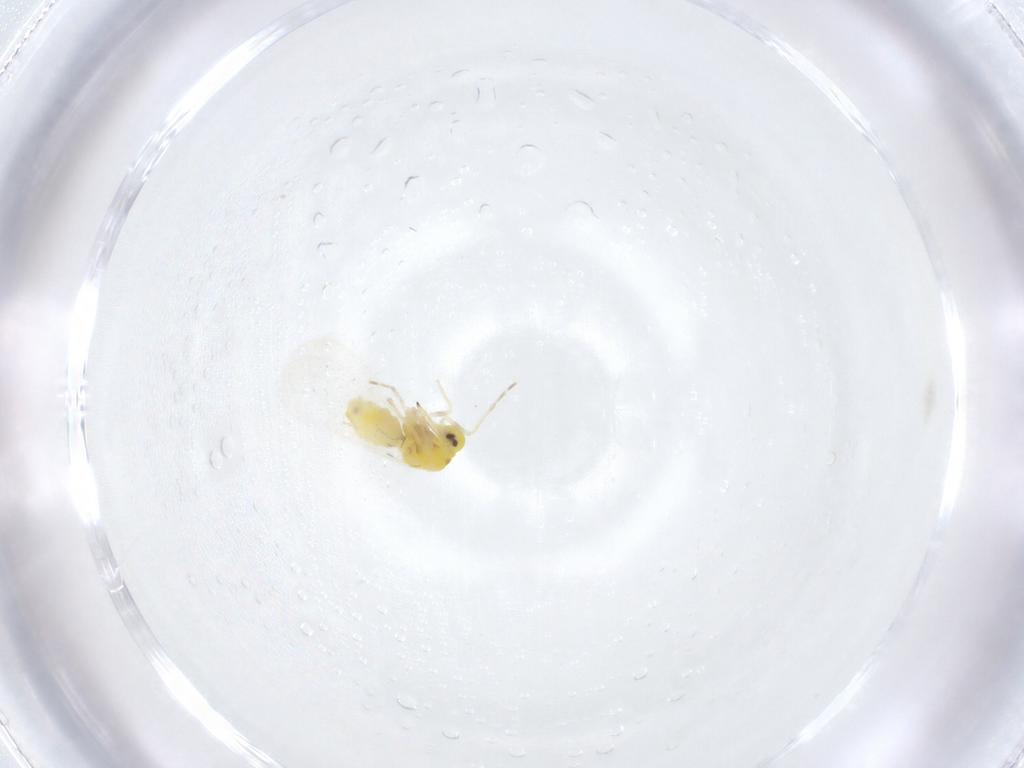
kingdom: Animalia
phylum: Arthropoda
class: Insecta
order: Hemiptera
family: Aleyrodidae
